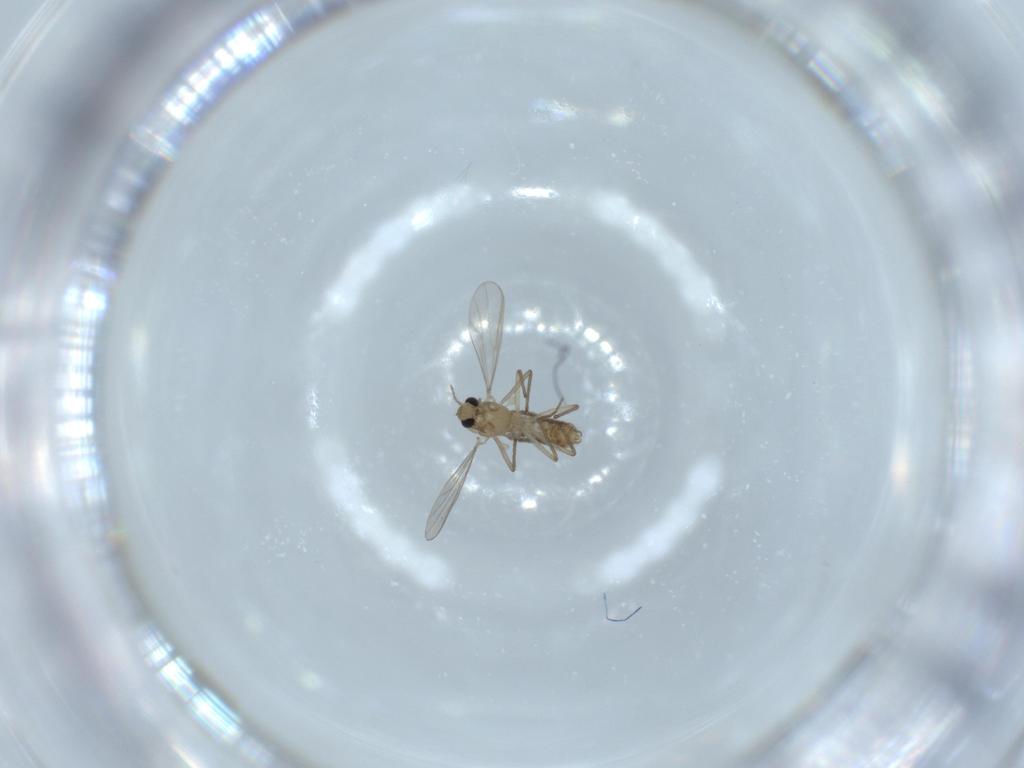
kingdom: Animalia
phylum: Arthropoda
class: Insecta
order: Diptera
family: Chironomidae
